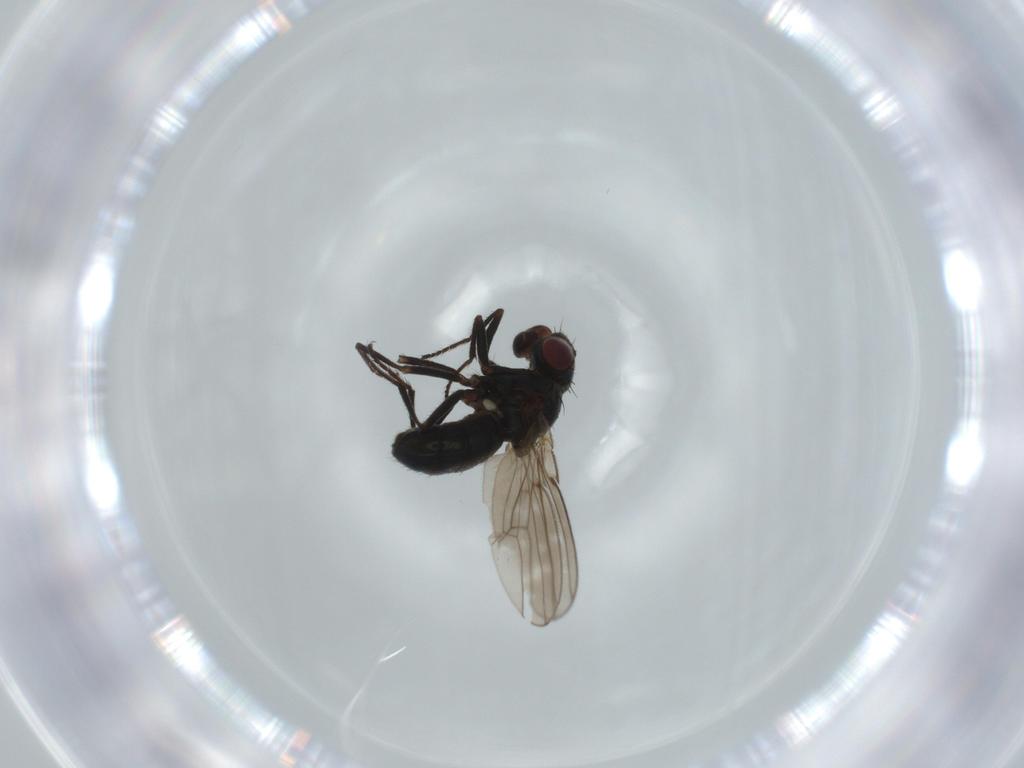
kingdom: Animalia
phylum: Arthropoda
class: Insecta
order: Diptera
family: Ephydridae
